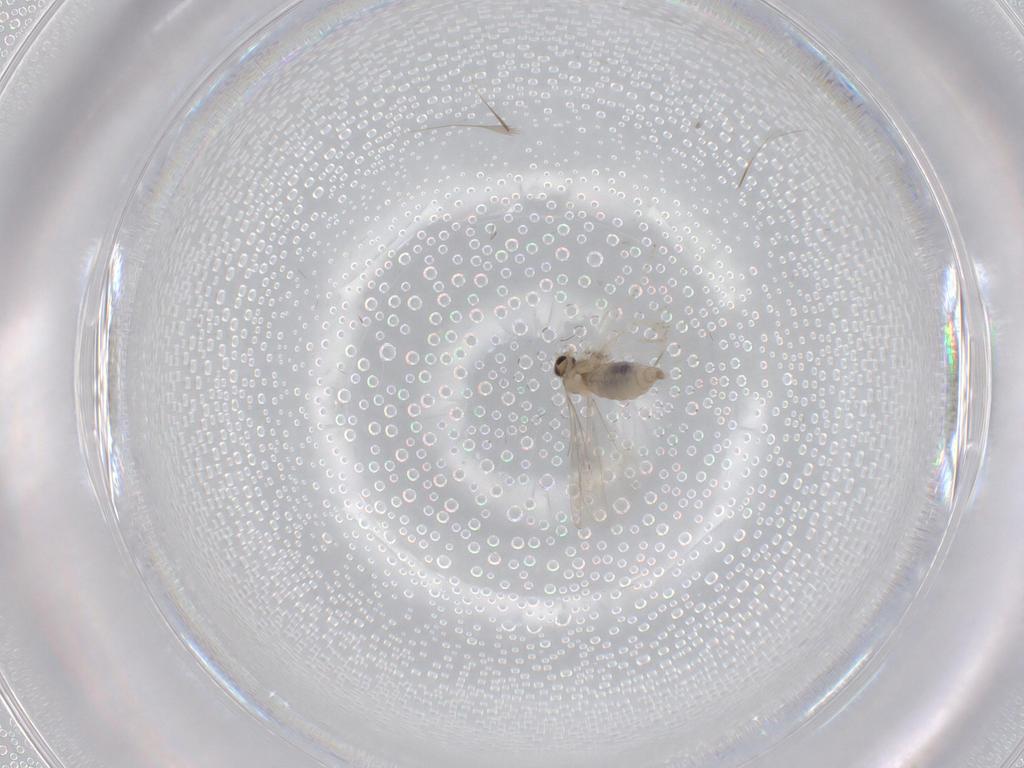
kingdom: Animalia
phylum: Arthropoda
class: Insecta
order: Diptera
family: Cecidomyiidae
